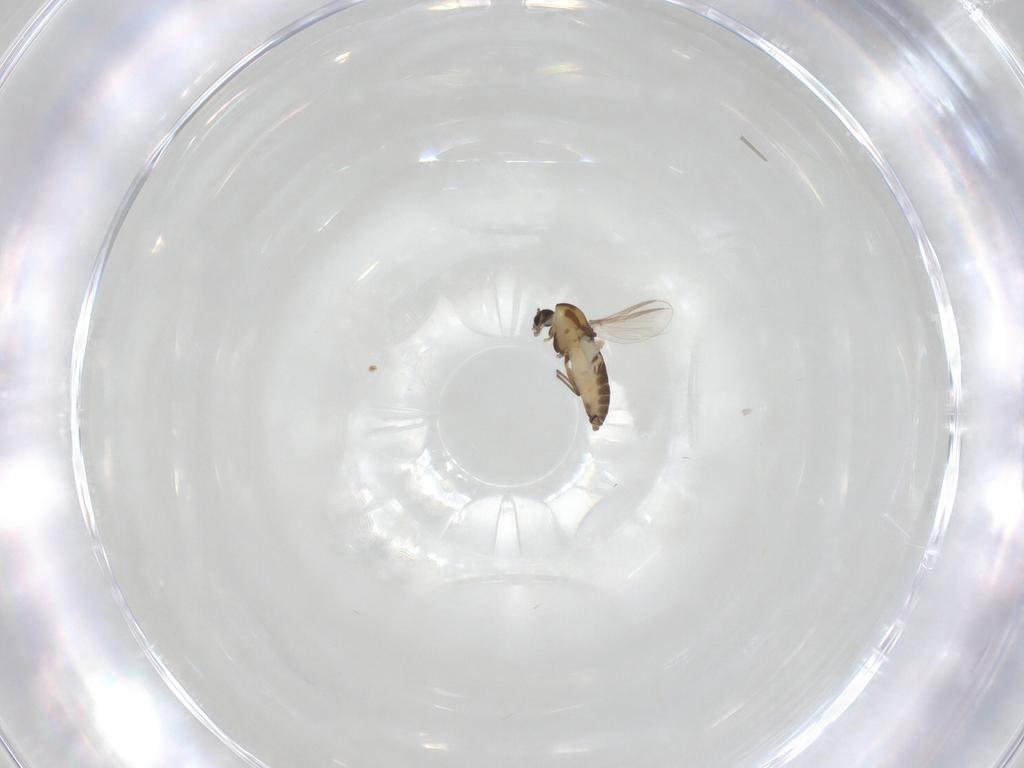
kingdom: Animalia
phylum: Arthropoda
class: Insecta
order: Diptera
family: Chironomidae
